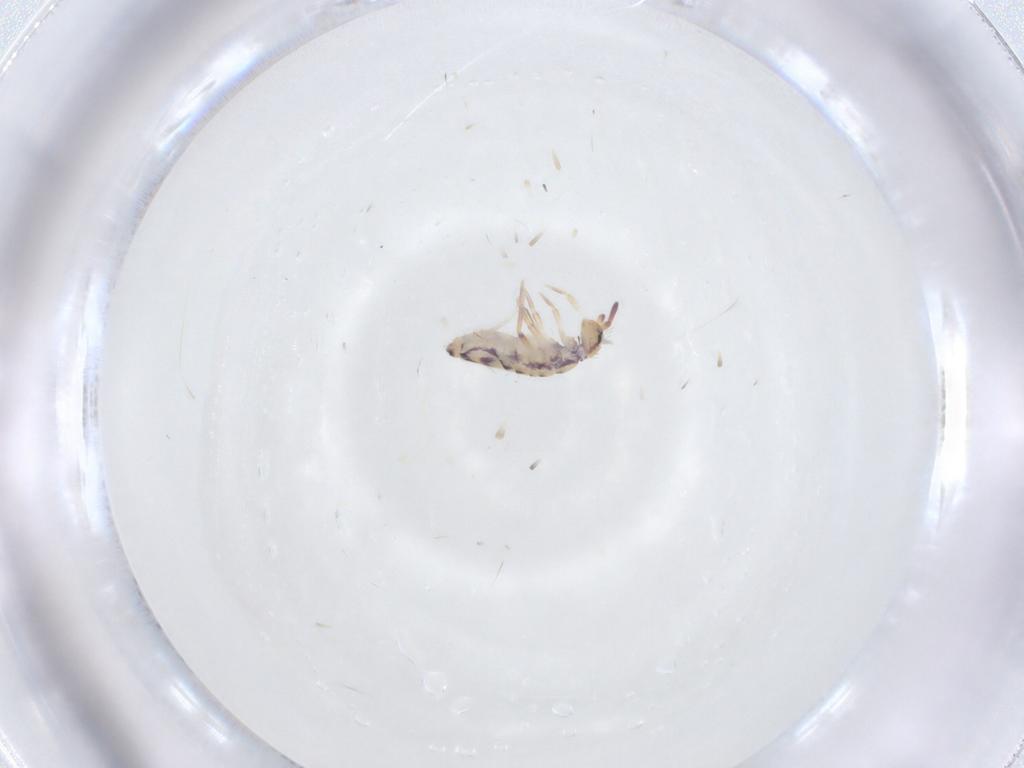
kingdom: Animalia
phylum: Arthropoda
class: Collembola
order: Entomobryomorpha
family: Entomobryidae
